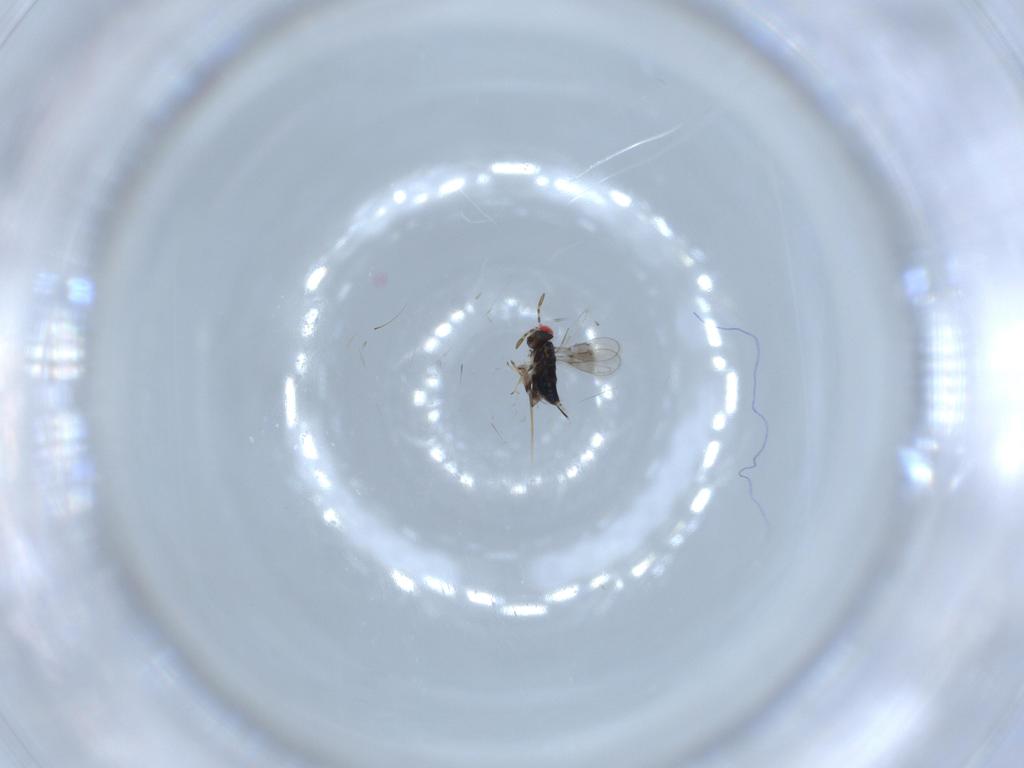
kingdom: Animalia
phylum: Arthropoda
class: Insecta
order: Hymenoptera
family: Azotidae
